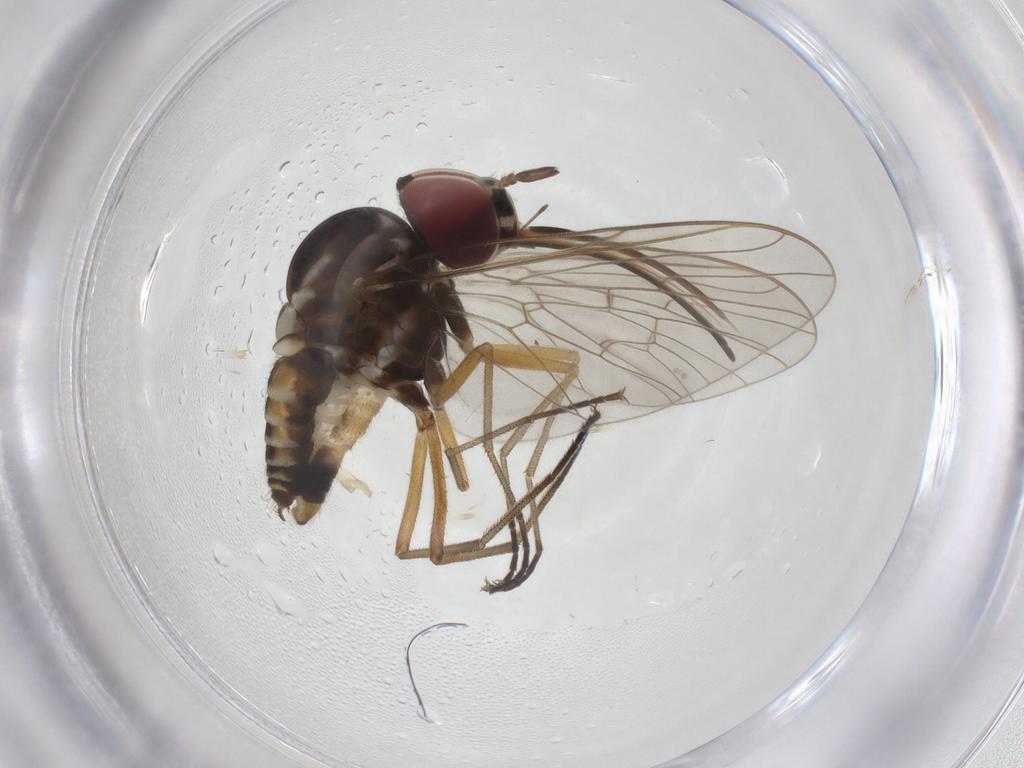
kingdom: Animalia
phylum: Arthropoda
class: Insecta
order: Diptera
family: Bombyliidae
